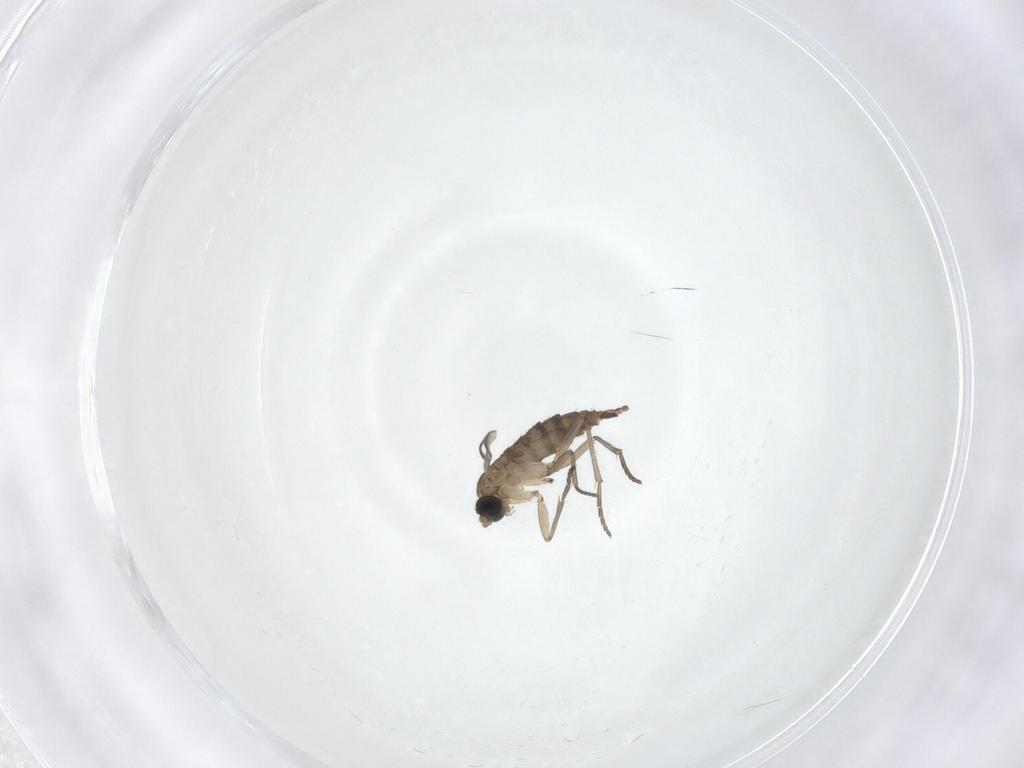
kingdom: Animalia
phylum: Arthropoda
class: Insecta
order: Diptera
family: Sciaridae
